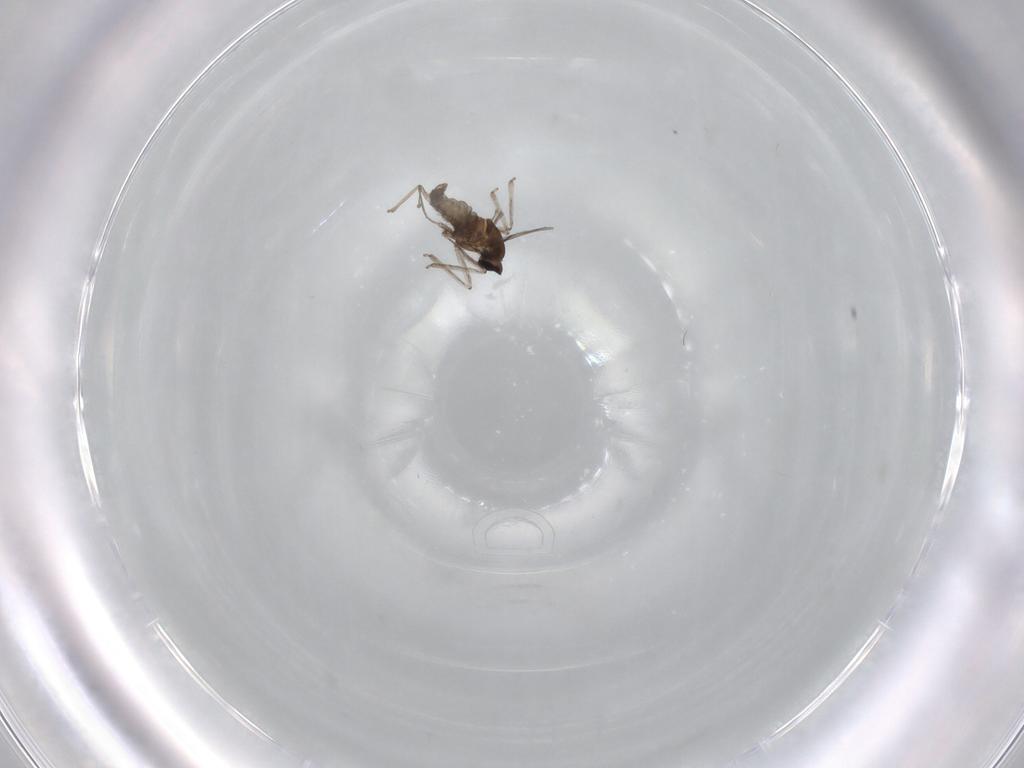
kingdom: Animalia
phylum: Arthropoda
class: Insecta
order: Diptera
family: Cecidomyiidae
